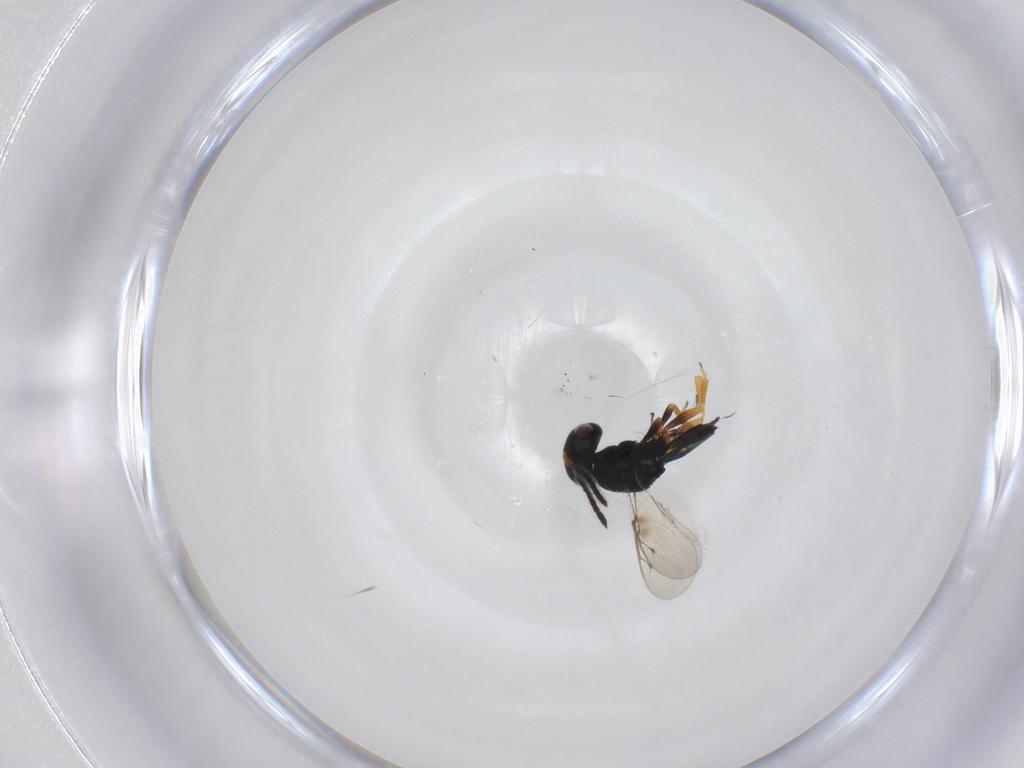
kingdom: Animalia
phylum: Arthropoda
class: Insecta
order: Hymenoptera
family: Pteromalidae
